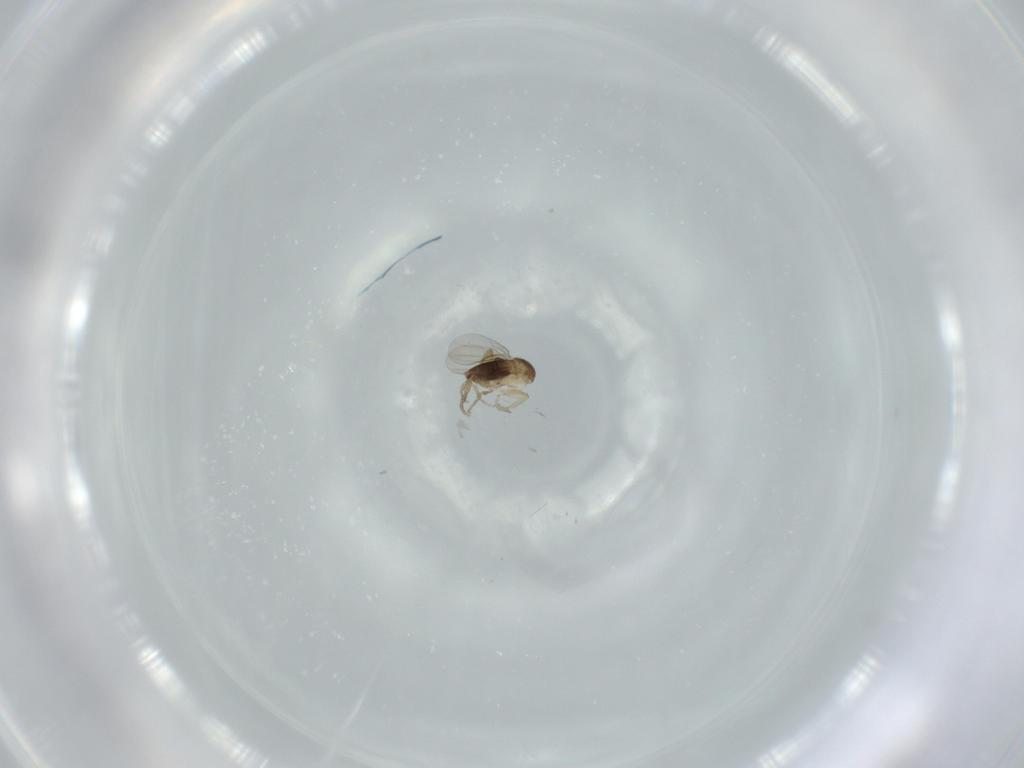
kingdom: Animalia
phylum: Arthropoda
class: Insecta
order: Diptera
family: Phoridae
